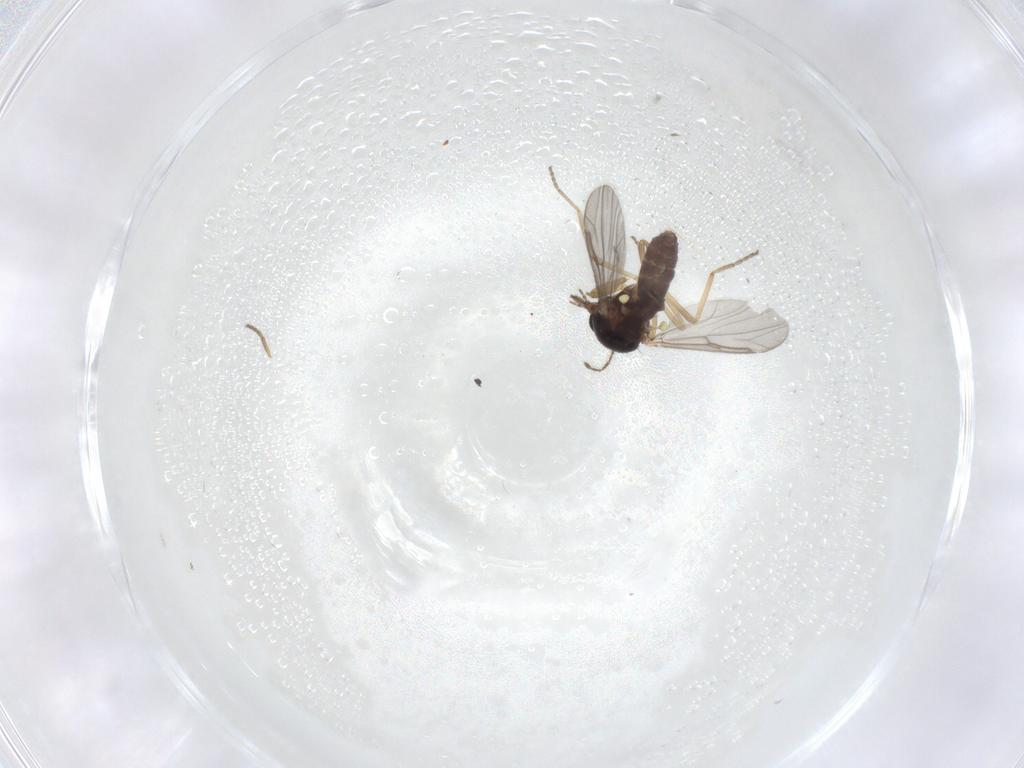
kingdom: Animalia
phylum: Arthropoda
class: Insecta
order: Diptera
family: Ceratopogonidae
